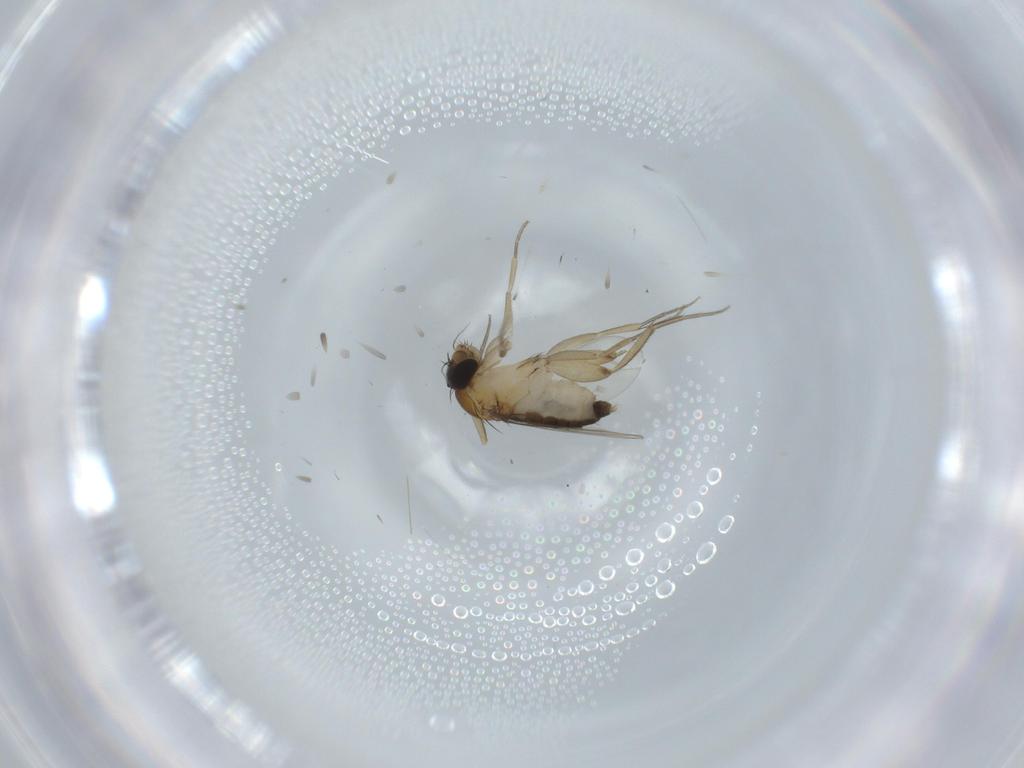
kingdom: Animalia
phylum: Arthropoda
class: Insecta
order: Diptera
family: Phoridae
